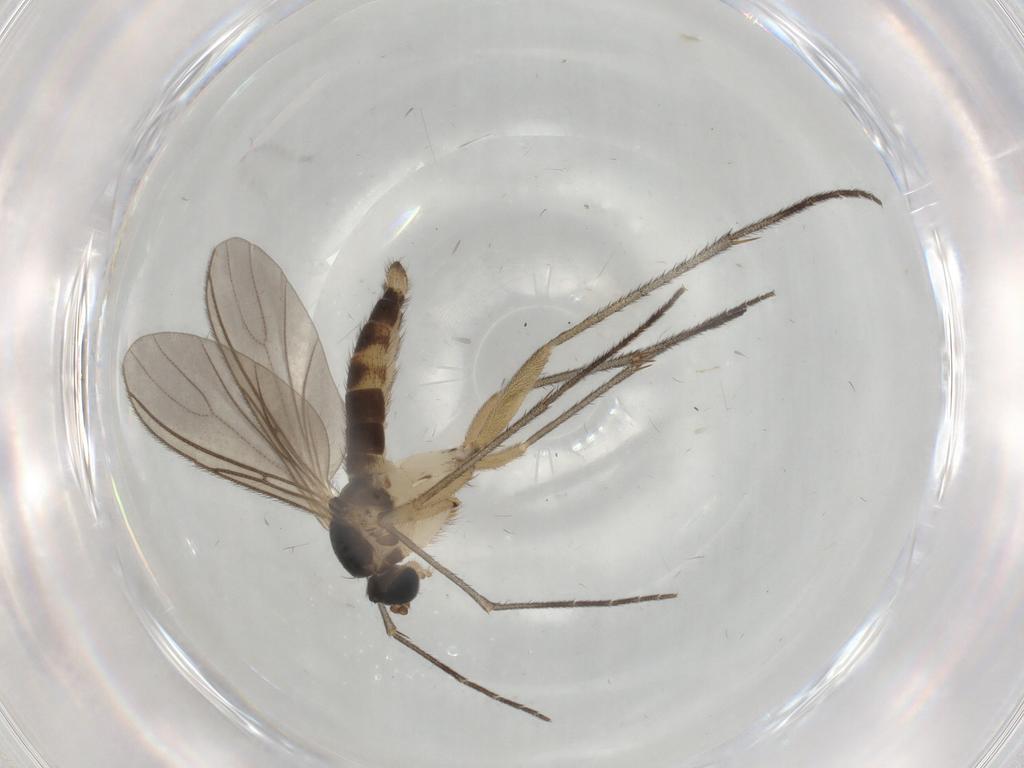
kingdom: Animalia
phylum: Arthropoda
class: Insecta
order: Diptera
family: Sciaridae
